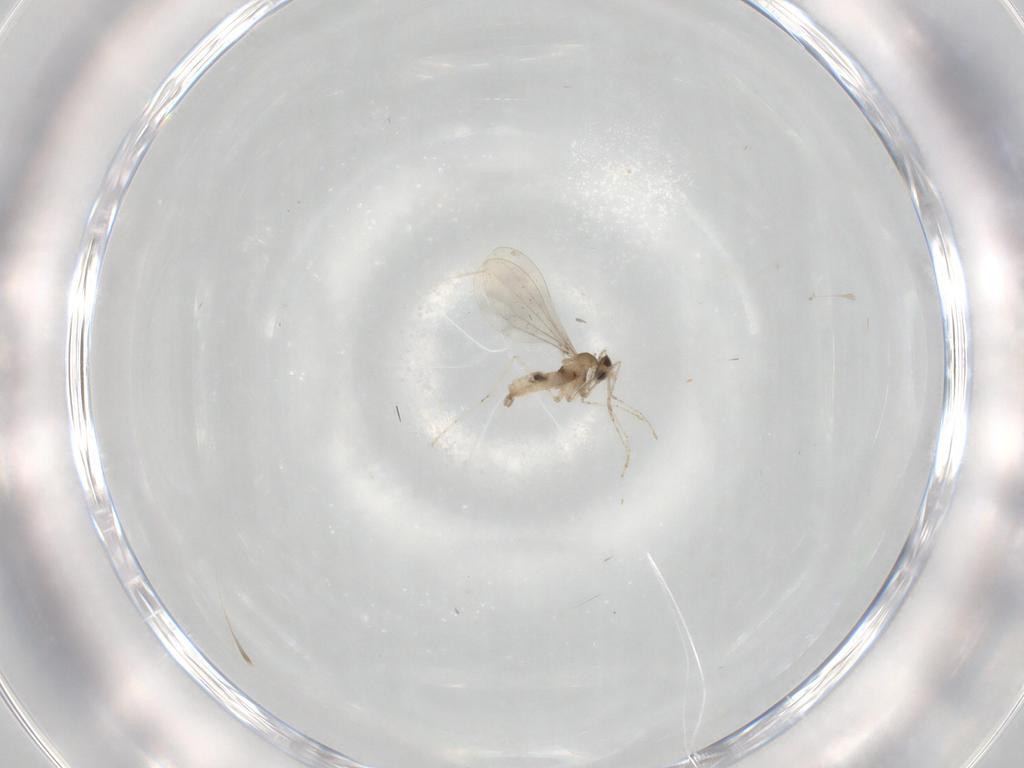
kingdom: Animalia
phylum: Arthropoda
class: Insecta
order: Diptera
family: Cecidomyiidae
